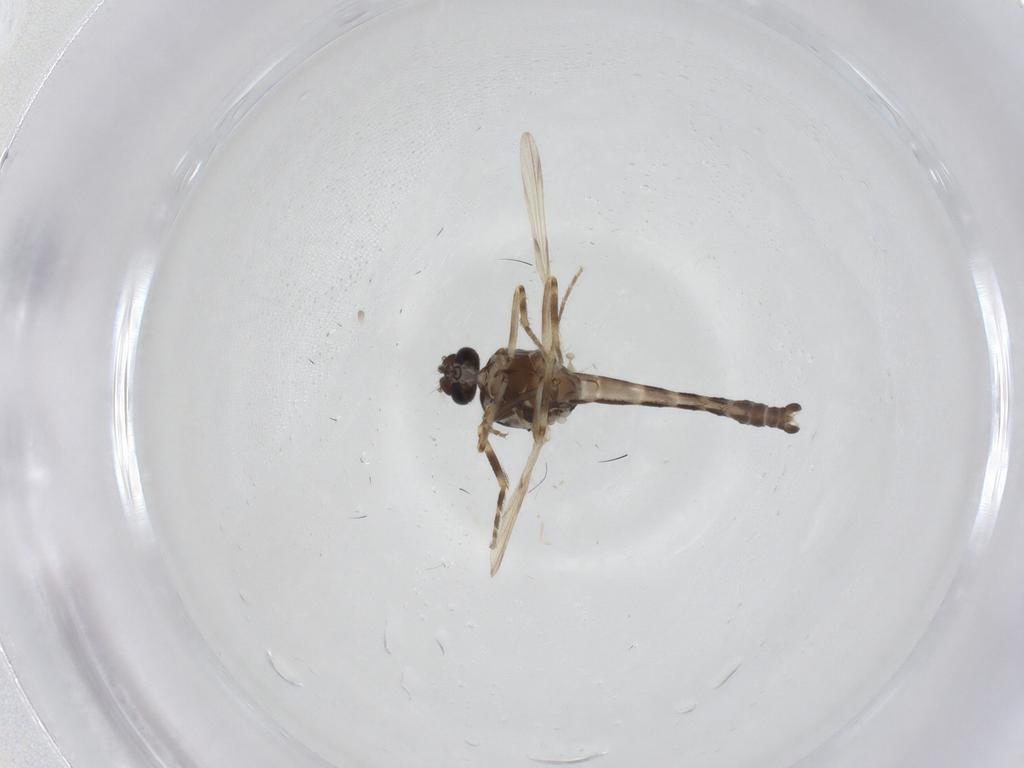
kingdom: Animalia
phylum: Arthropoda
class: Insecta
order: Diptera
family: Ceratopogonidae
